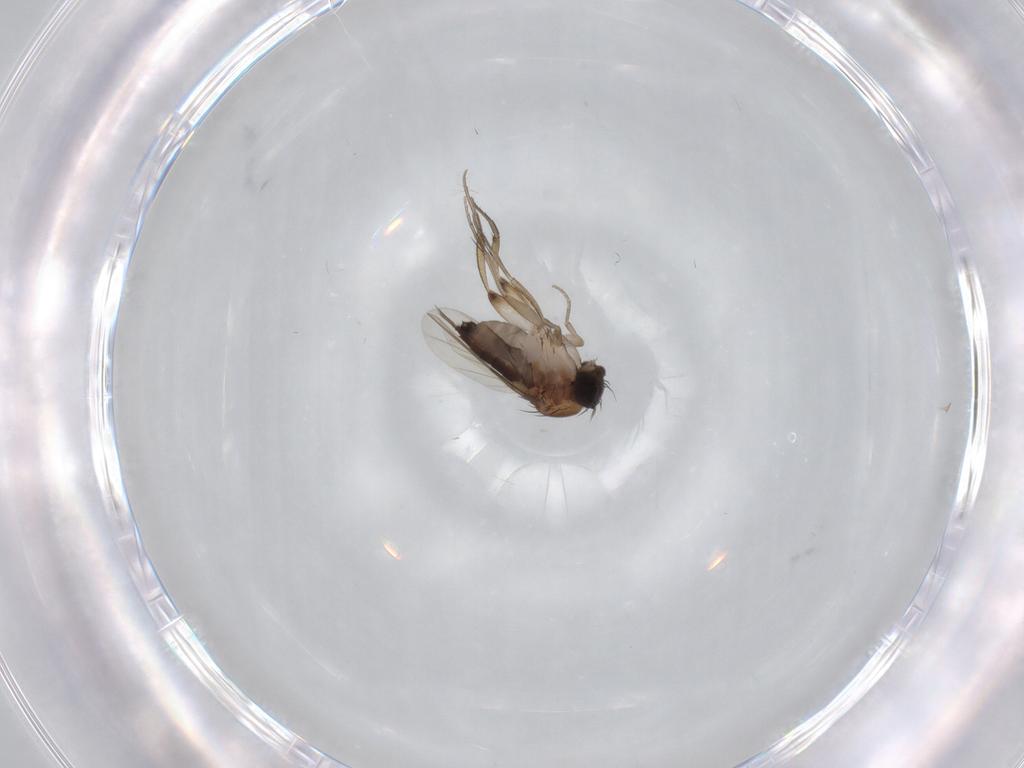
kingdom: Animalia
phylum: Arthropoda
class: Insecta
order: Diptera
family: Phoridae
